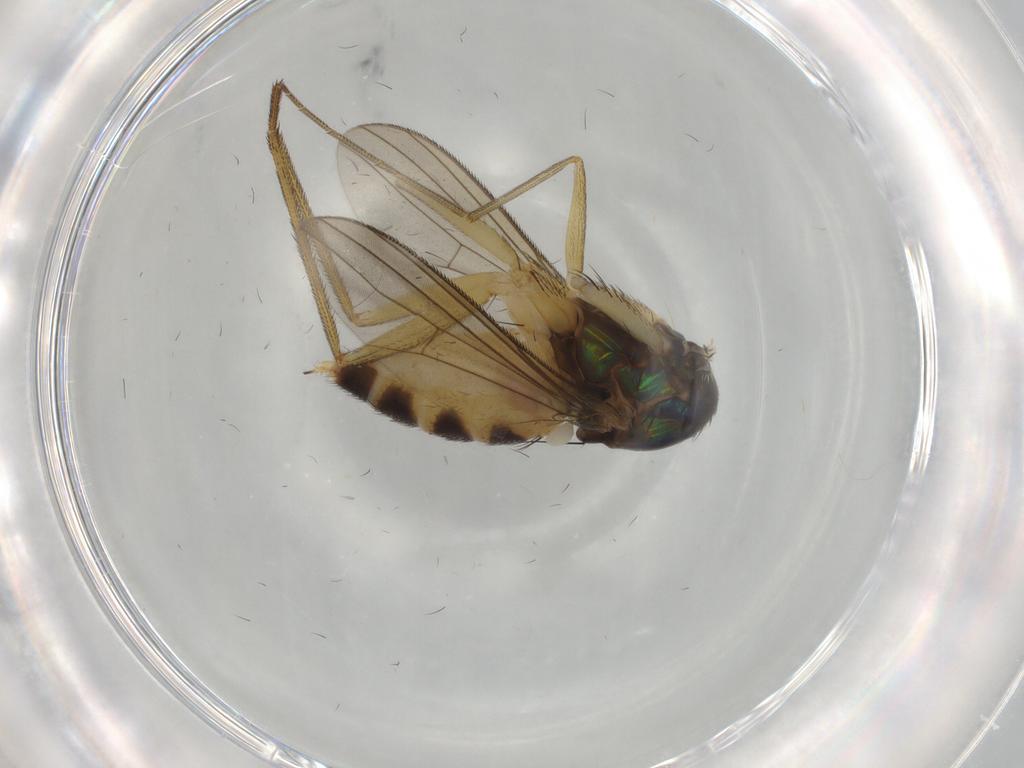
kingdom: Animalia
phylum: Arthropoda
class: Insecta
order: Diptera
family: Dolichopodidae
